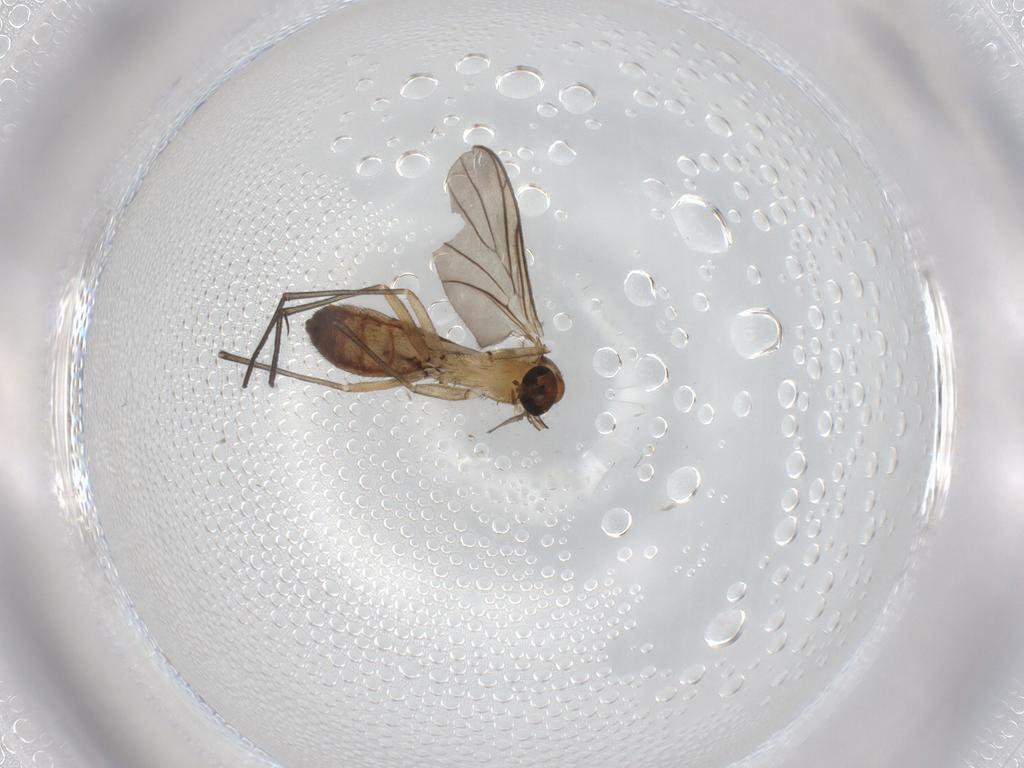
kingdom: Animalia
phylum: Arthropoda
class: Insecta
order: Diptera
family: Keroplatidae
